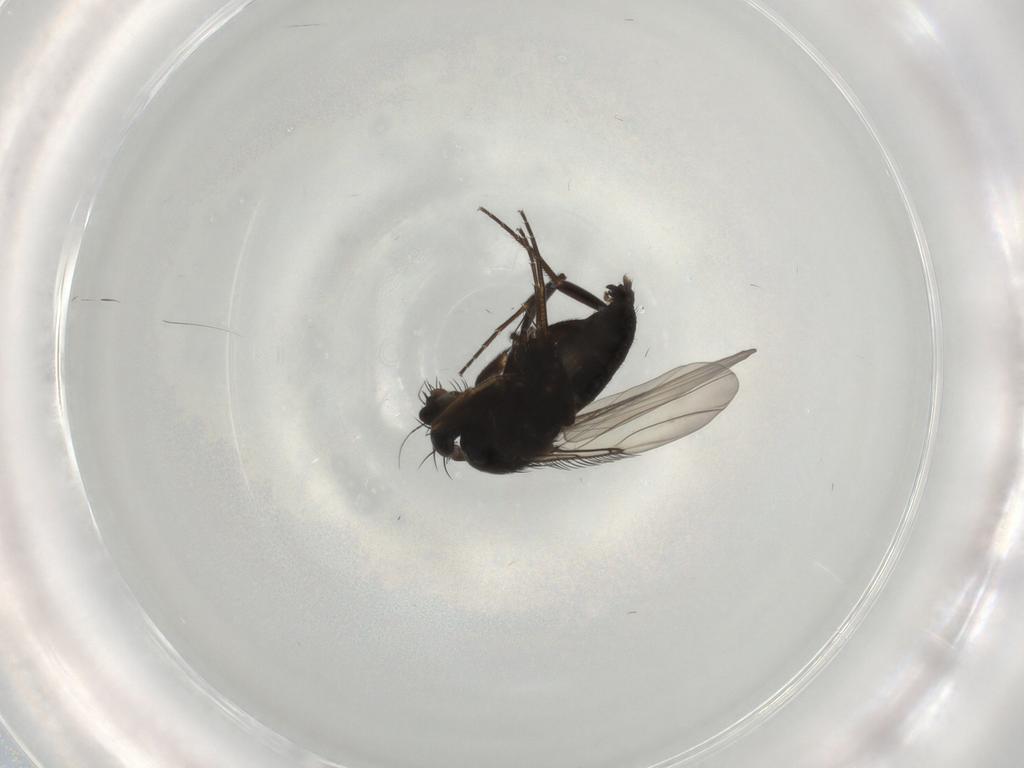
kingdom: Animalia
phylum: Arthropoda
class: Insecta
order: Diptera
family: Phoridae
